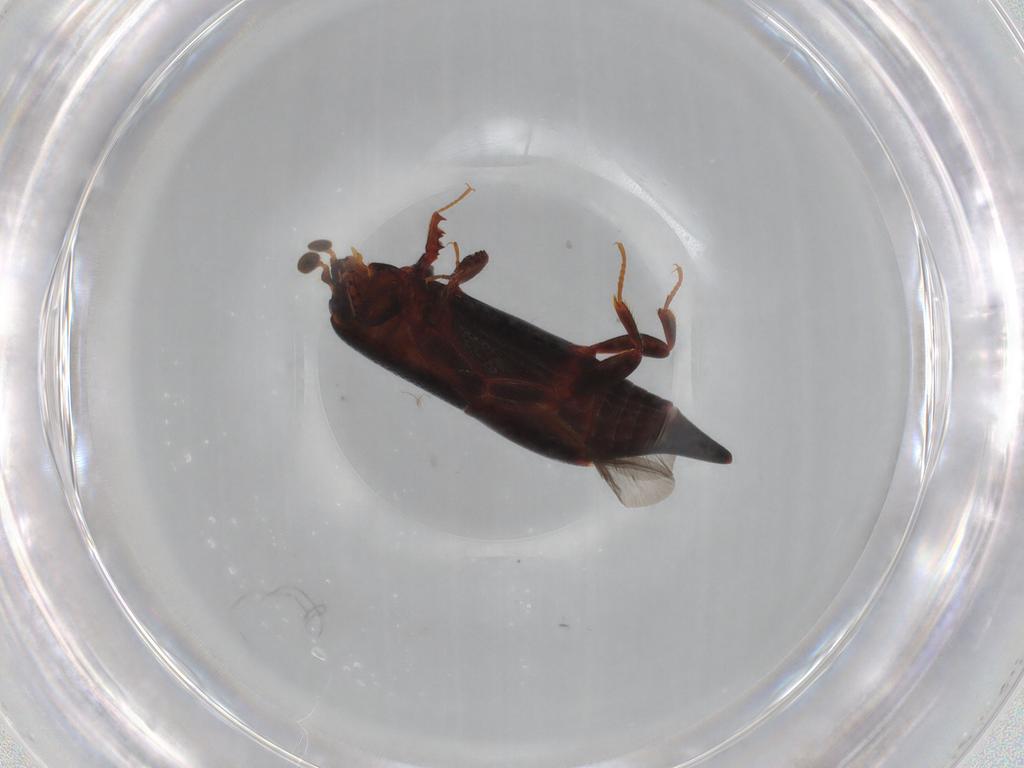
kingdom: Animalia
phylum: Arthropoda
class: Insecta
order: Coleoptera
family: Histeridae
